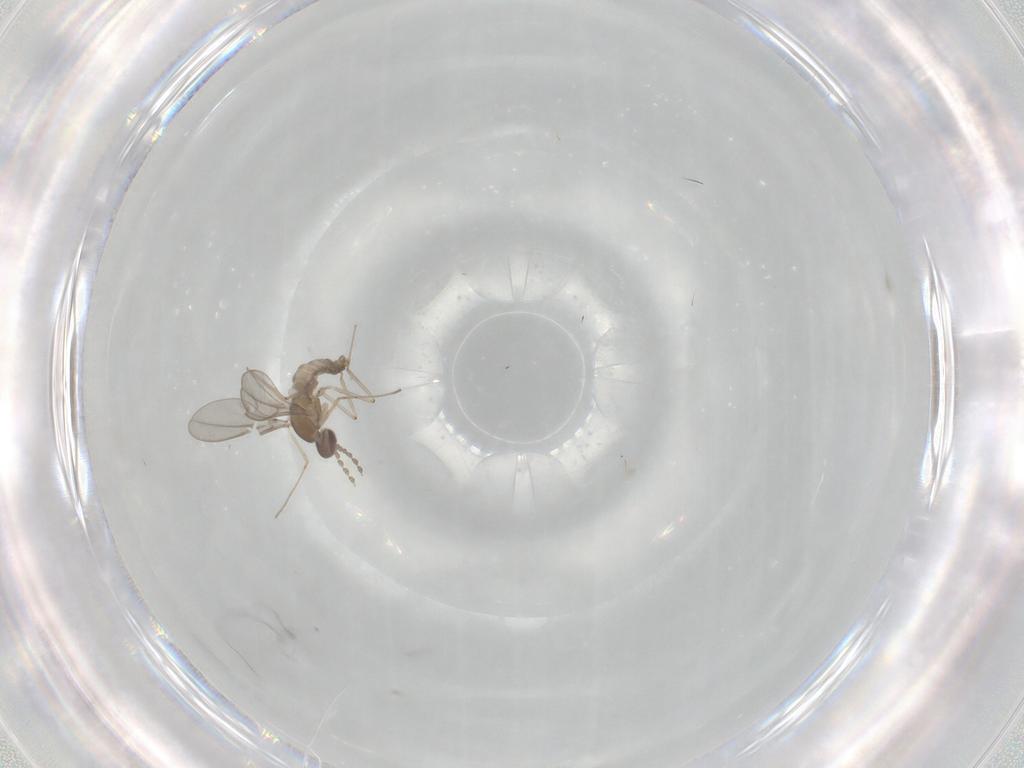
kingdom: Animalia
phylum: Arthropoda
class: Insecta
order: Diptera
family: Cecidomyiidae
